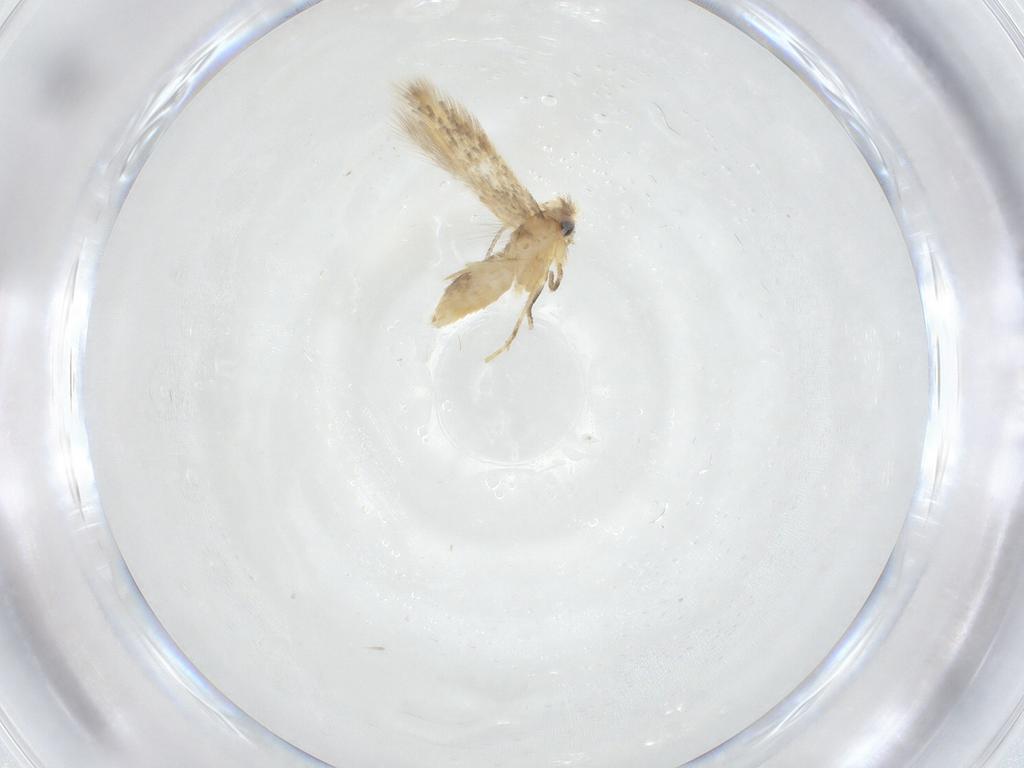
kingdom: Animalia
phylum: Arthropoda
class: Insecta
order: Lepidoptera
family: Nepticulidae
